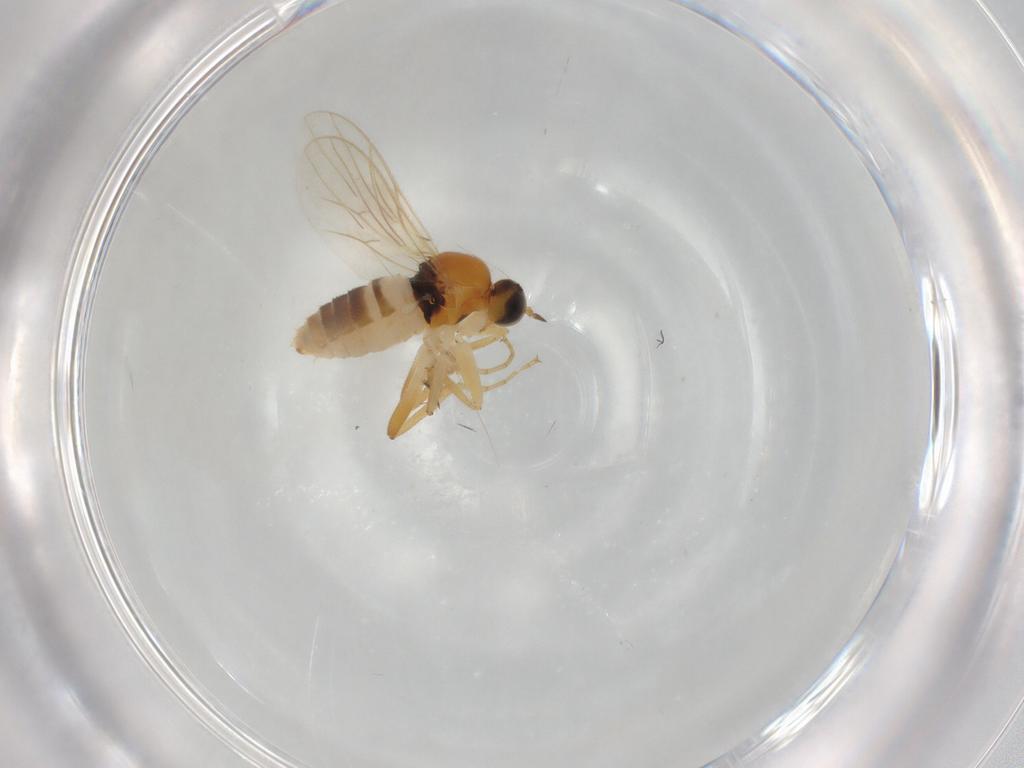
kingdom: Animalia
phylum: Arthropoda
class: Insecta
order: Diptera
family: Hybotidae
